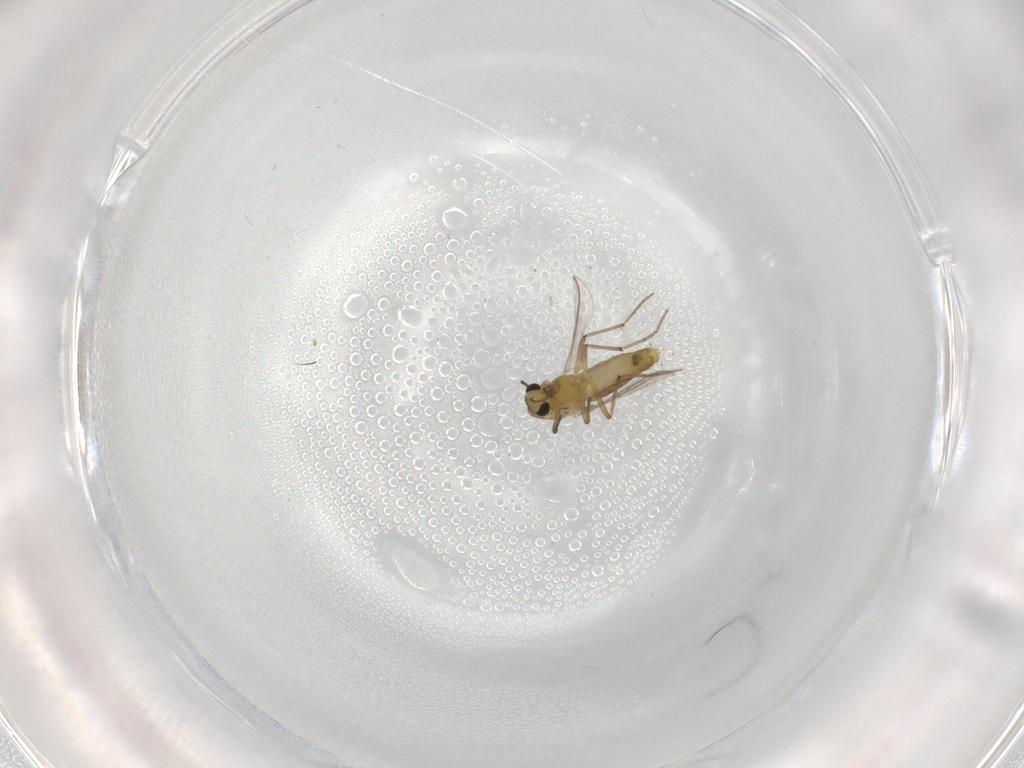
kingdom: Animalia
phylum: Arthropoda
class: Insecta
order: Diptera
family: Chironomidae
